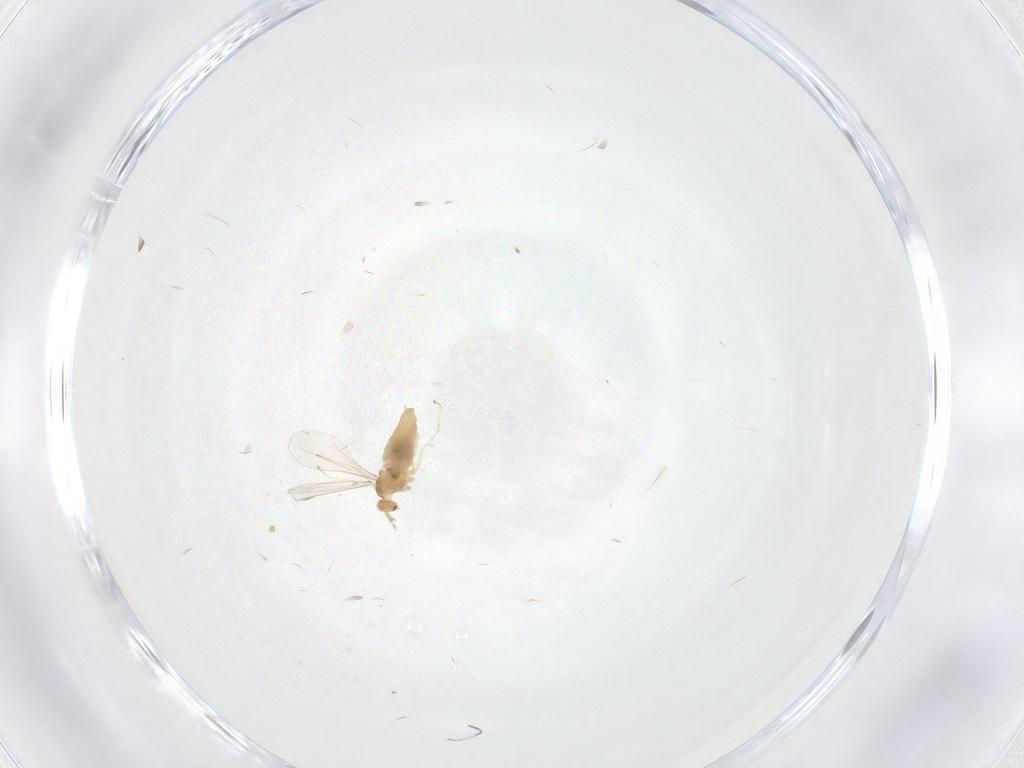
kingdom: Animalia
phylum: Arthropoda
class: Insecta
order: Diptera
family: Cecidomyiidae
